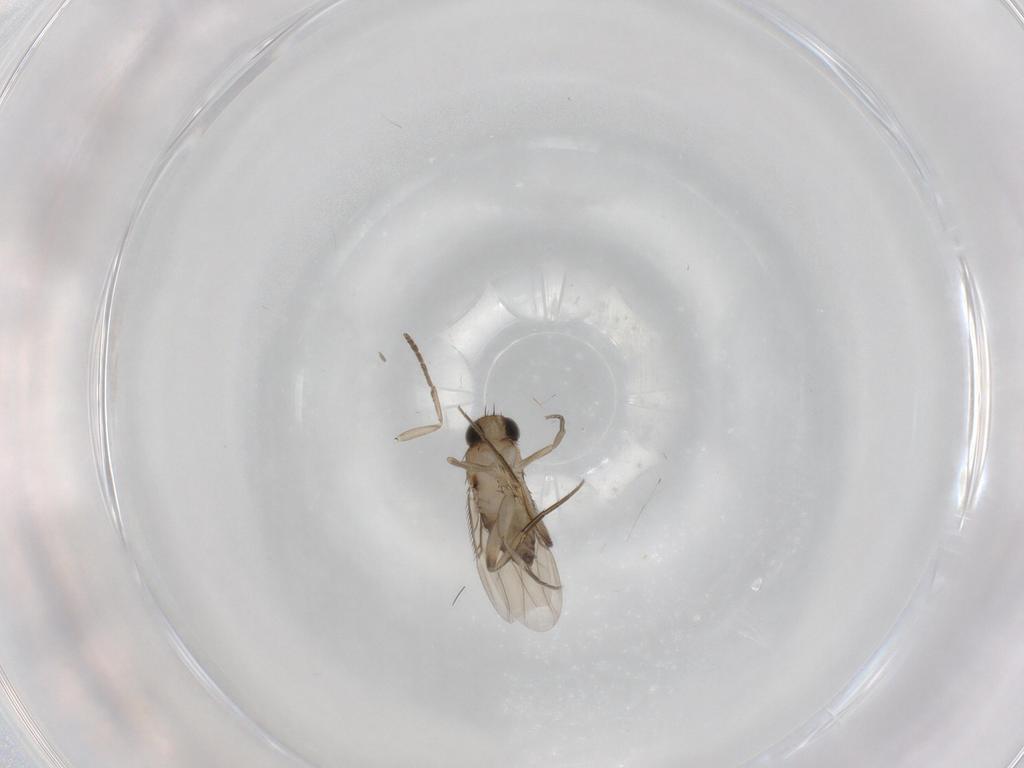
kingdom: Animalia
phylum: Arthropoda
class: Insecta
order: Diptera
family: Phoridae
